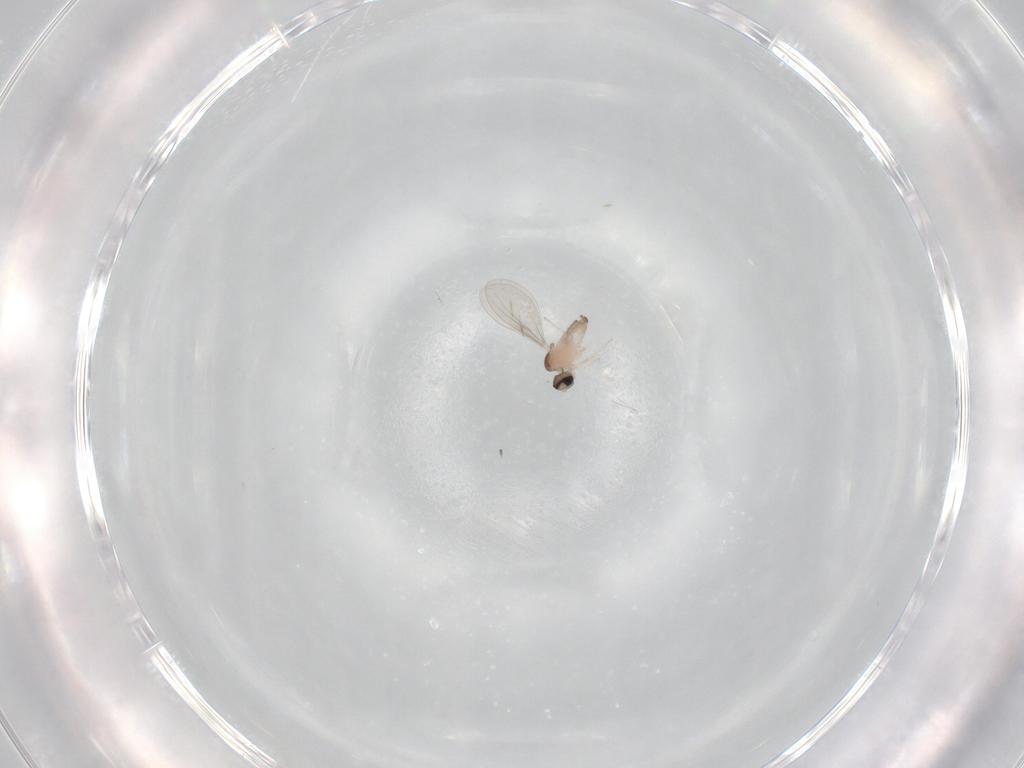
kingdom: Animalia
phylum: Arthropoda
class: Insecta
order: Diptera
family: Cecidomyiidae
